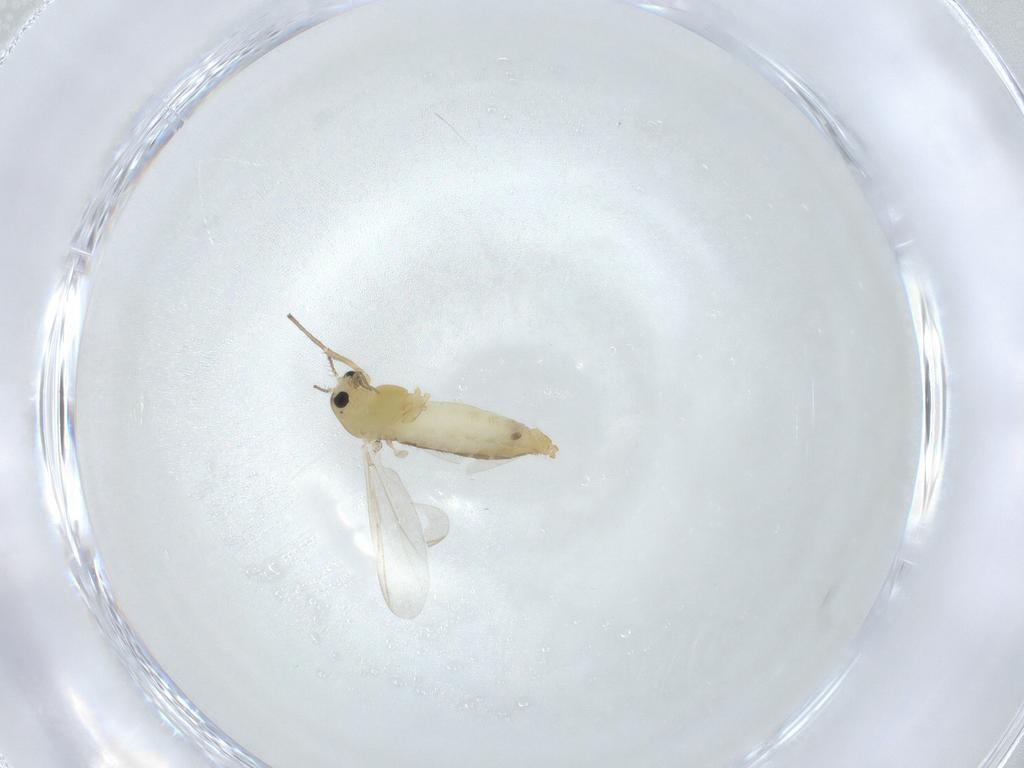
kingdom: Animalia
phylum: Arthropoda
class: Insecta
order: Diptera
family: Chironomidae
